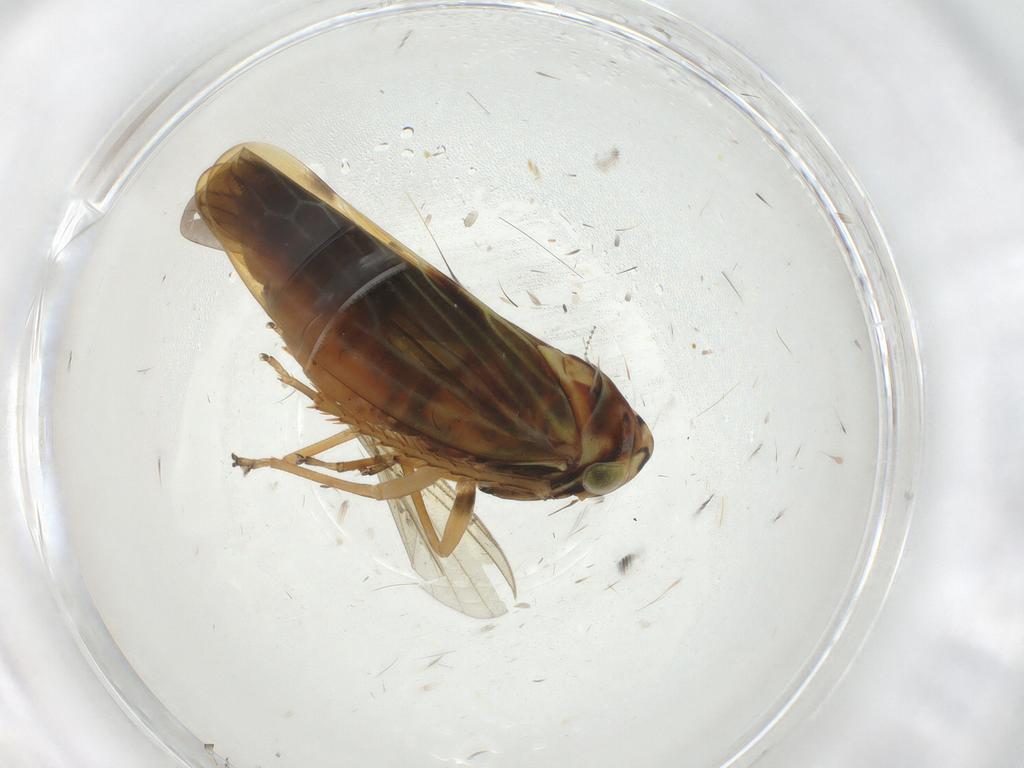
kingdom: Animalia
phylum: Arthropoda
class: Insecta
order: Hemiptera
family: Cicadellidae
